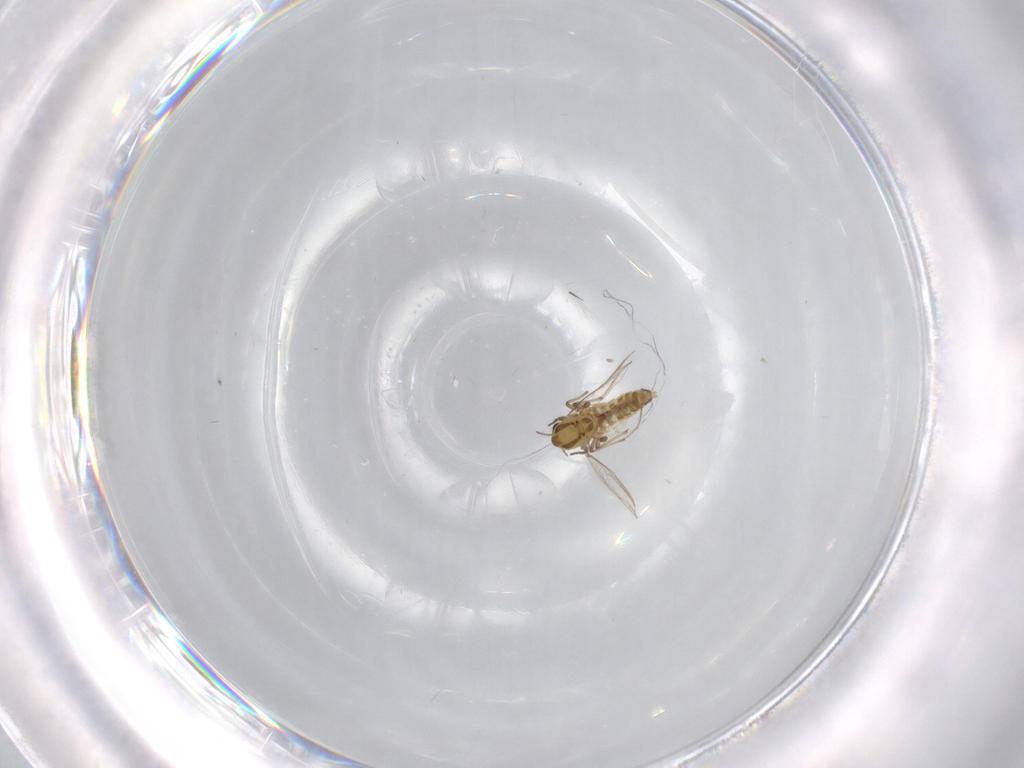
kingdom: Animalia
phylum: Arthropoda
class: Insecta
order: Diptera
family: Chironomidae
